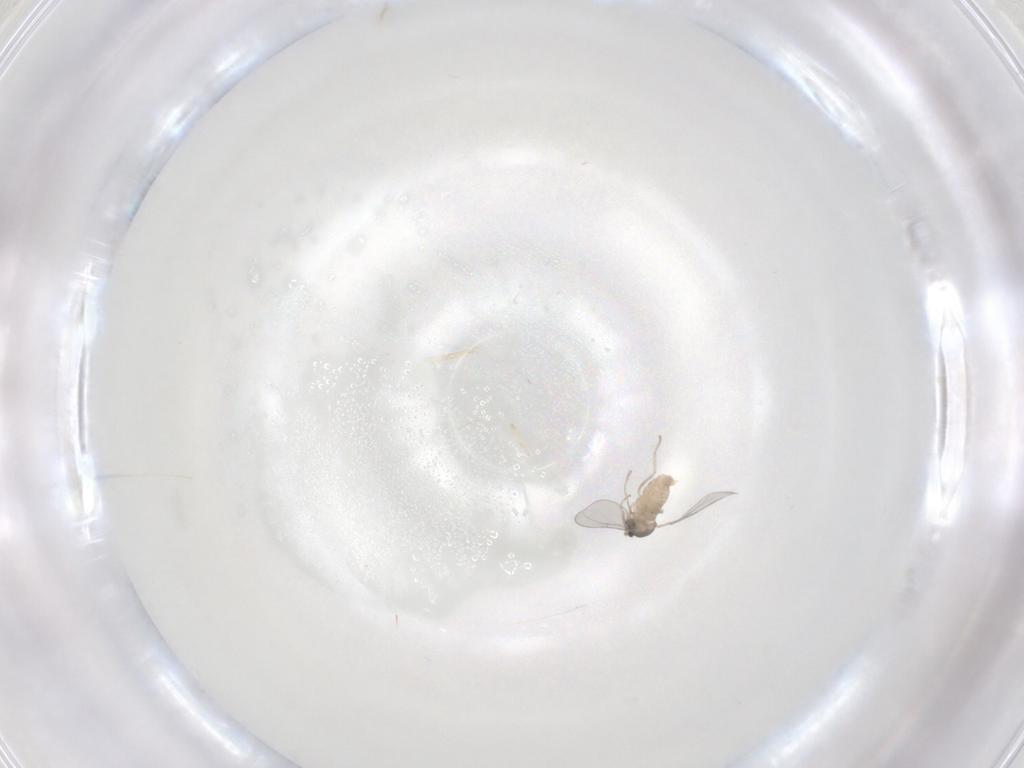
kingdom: Animalia
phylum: Arthropoda
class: Insecta
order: Diptera
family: Cecidomyiidae
